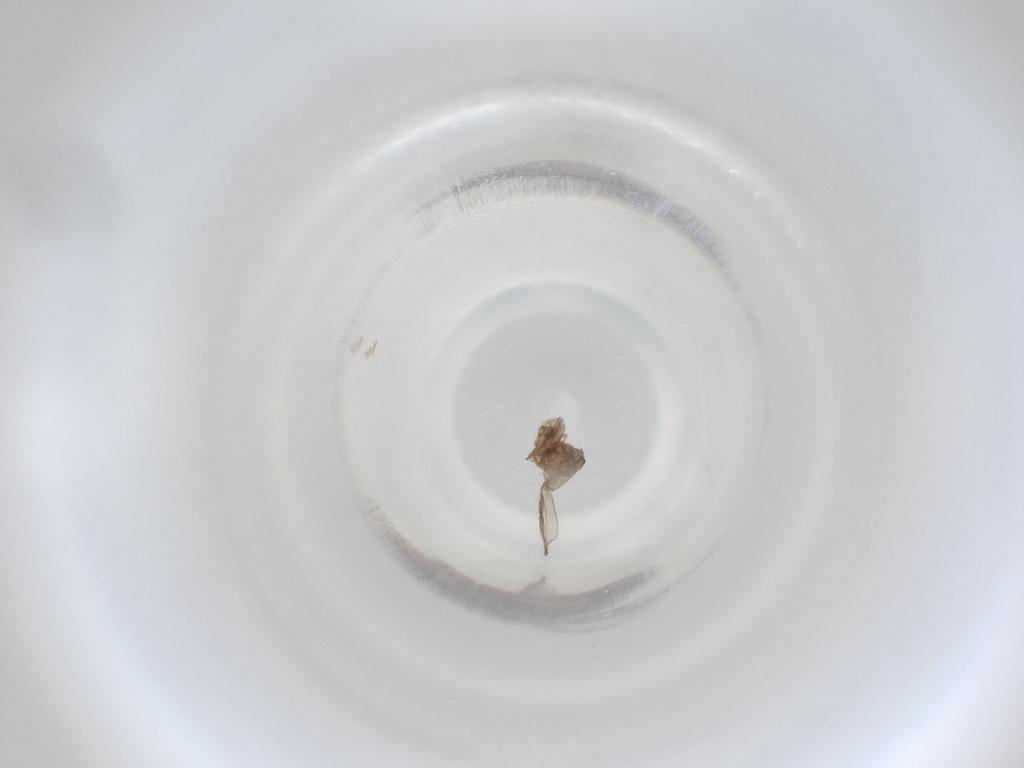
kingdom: Animalia
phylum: Arthropoda
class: Insecta
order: Diptera
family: Cecidomyiidae
